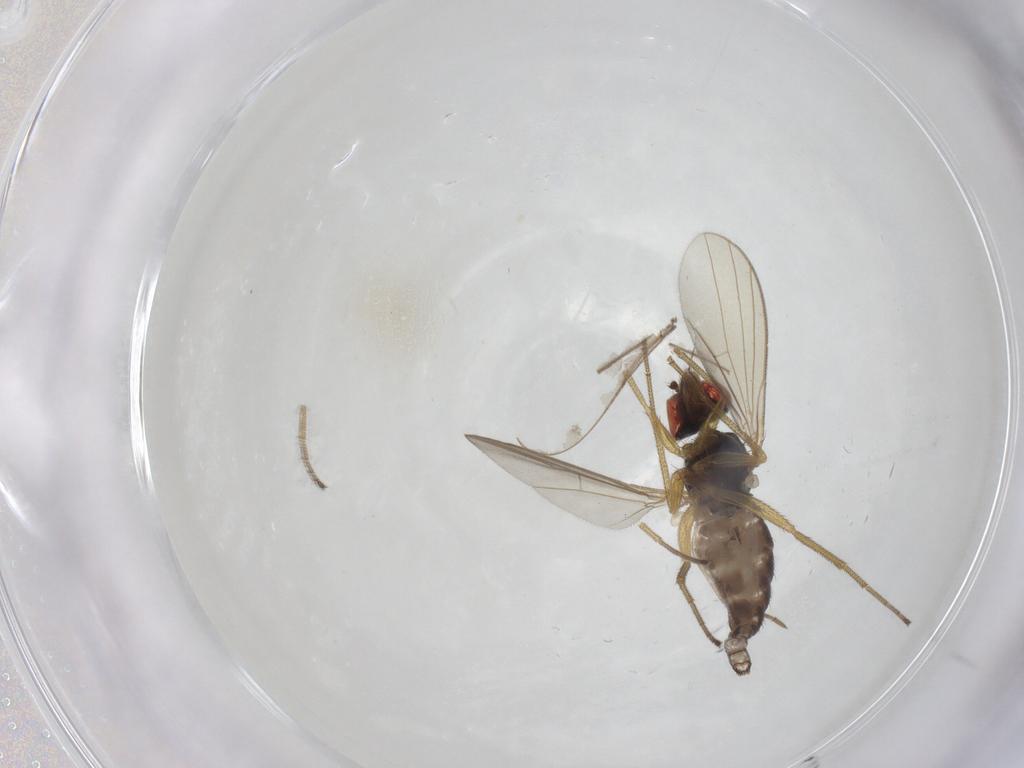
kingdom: Animalia
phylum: Arthropoda
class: Insecta
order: Diptera
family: Dolichopodidae
